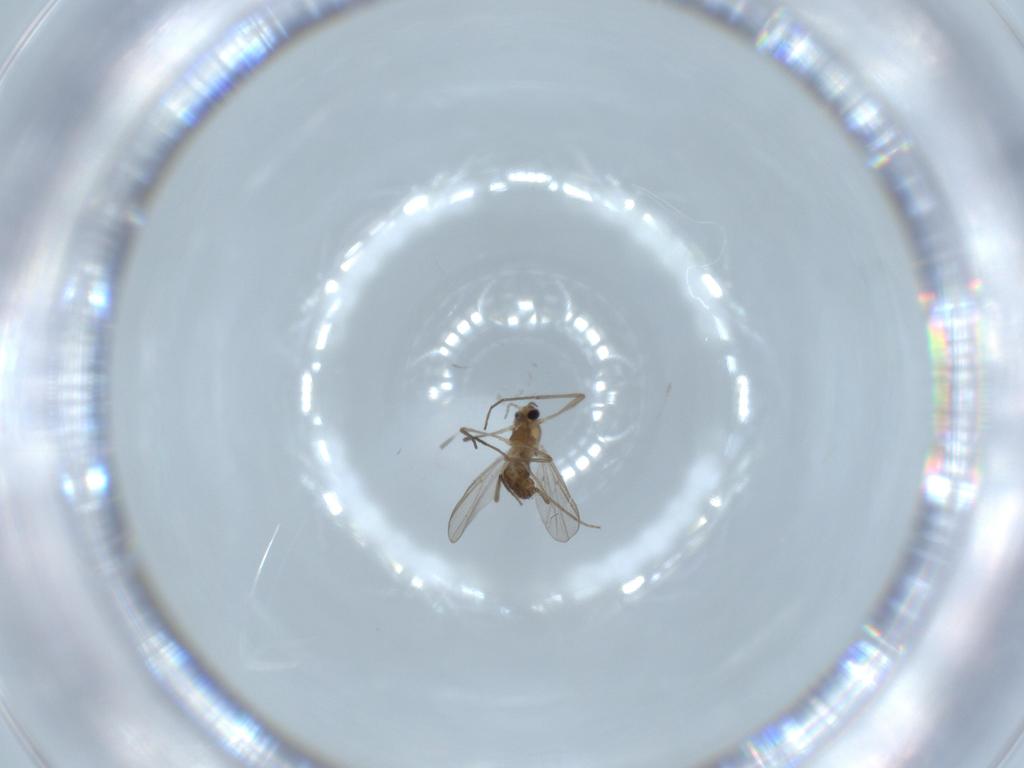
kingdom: Animalia
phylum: Arthropoda
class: Insecta
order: Diptera
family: Chironomidae
